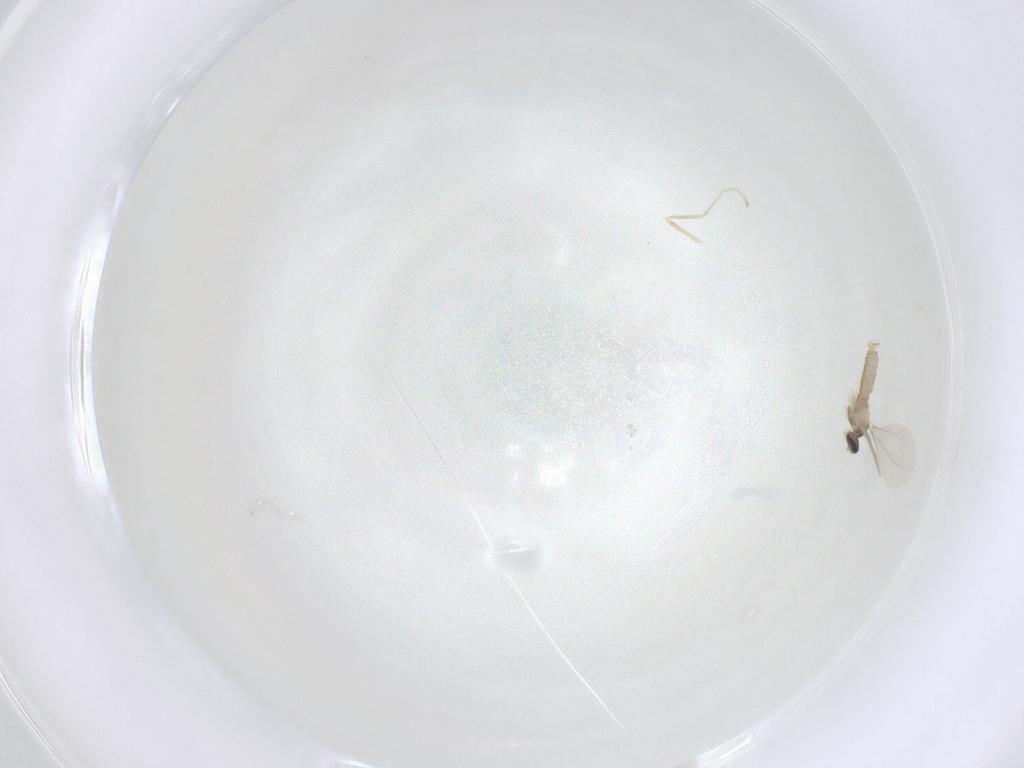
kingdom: Animalia
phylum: Arthropoda
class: Insecta
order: Diptera
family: Cecidomyiidae
